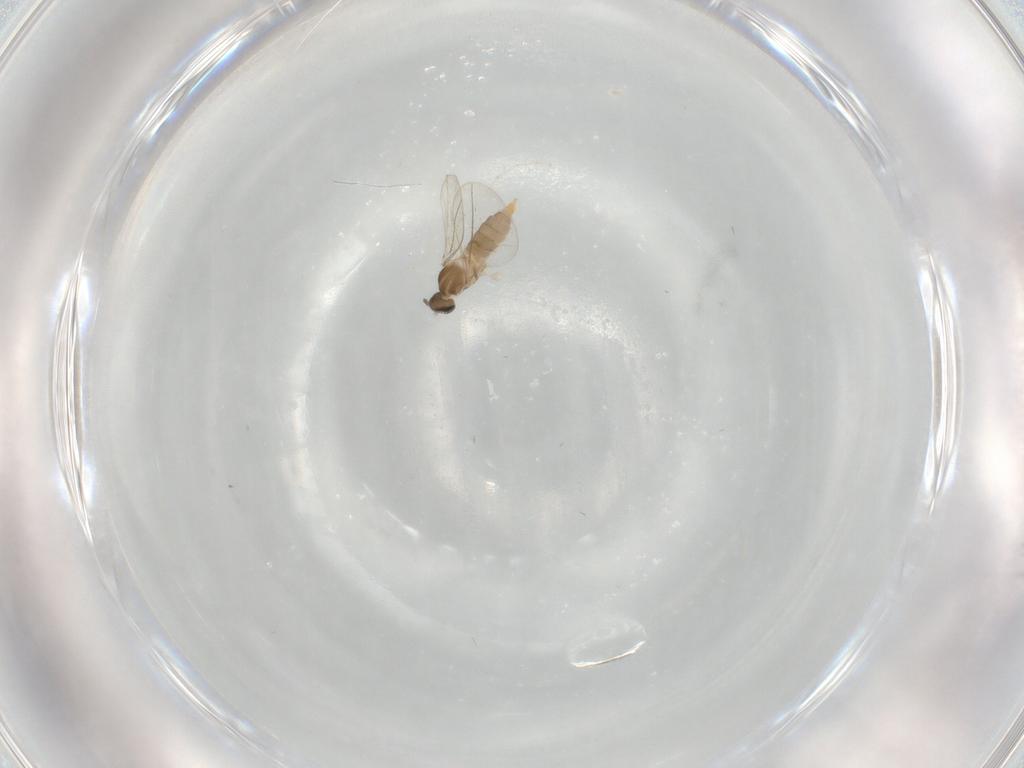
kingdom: Animalia
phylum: Arthropoda
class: Insecta
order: Diptera
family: Cecidomyiidae
